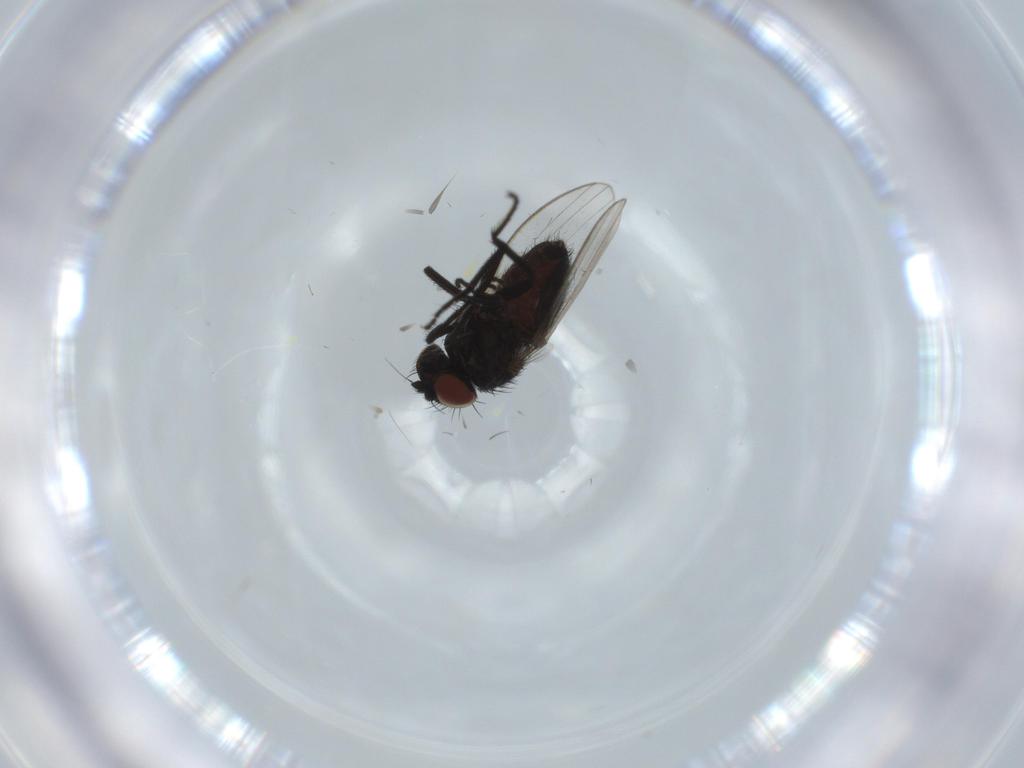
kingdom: Animalia
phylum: Arthropoda
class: Insecta
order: Diptera
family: Milichiidae
